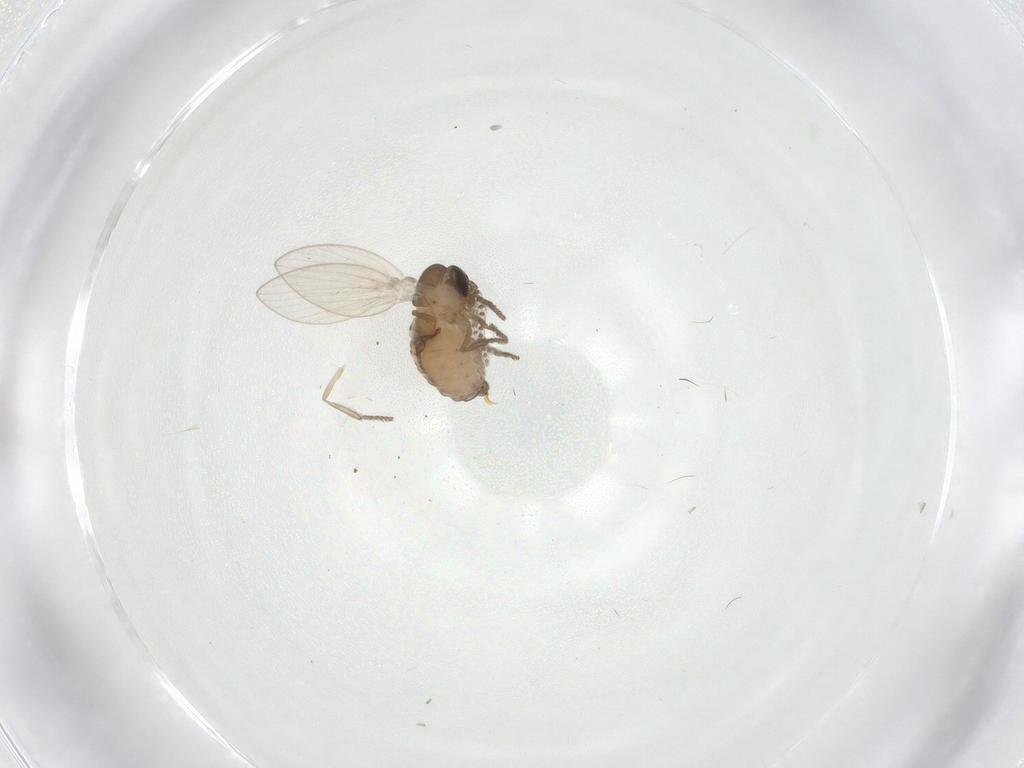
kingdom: Animalia
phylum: Arthropoda
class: Insecta
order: Diptera
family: Psychodidae
